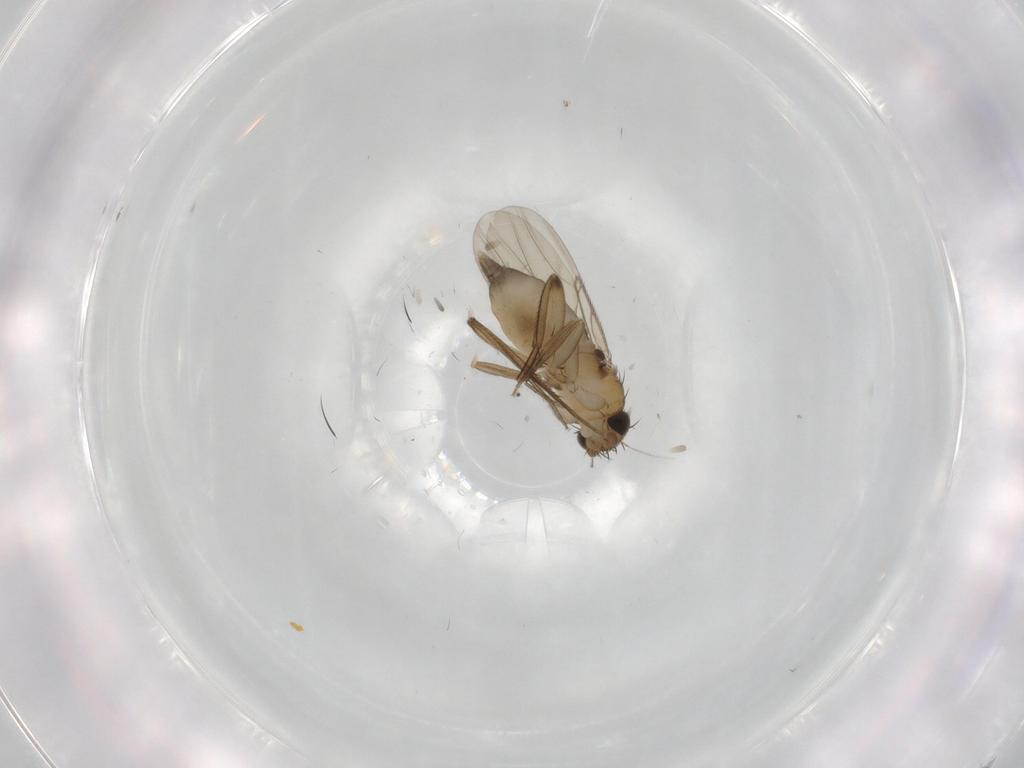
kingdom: Animalia
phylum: Arthropoda
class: Insecta
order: Diptera
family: Phoridae
